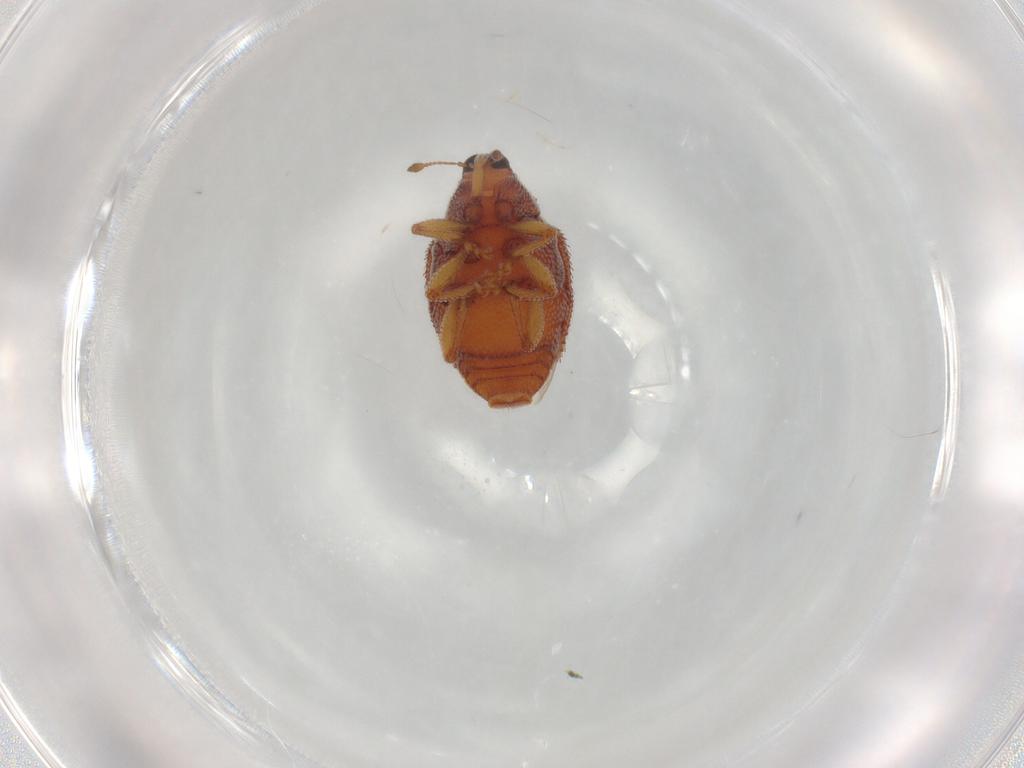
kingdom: Animalia
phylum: Arthropoda
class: Insecta
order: Coleoptera
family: Curculionidae
